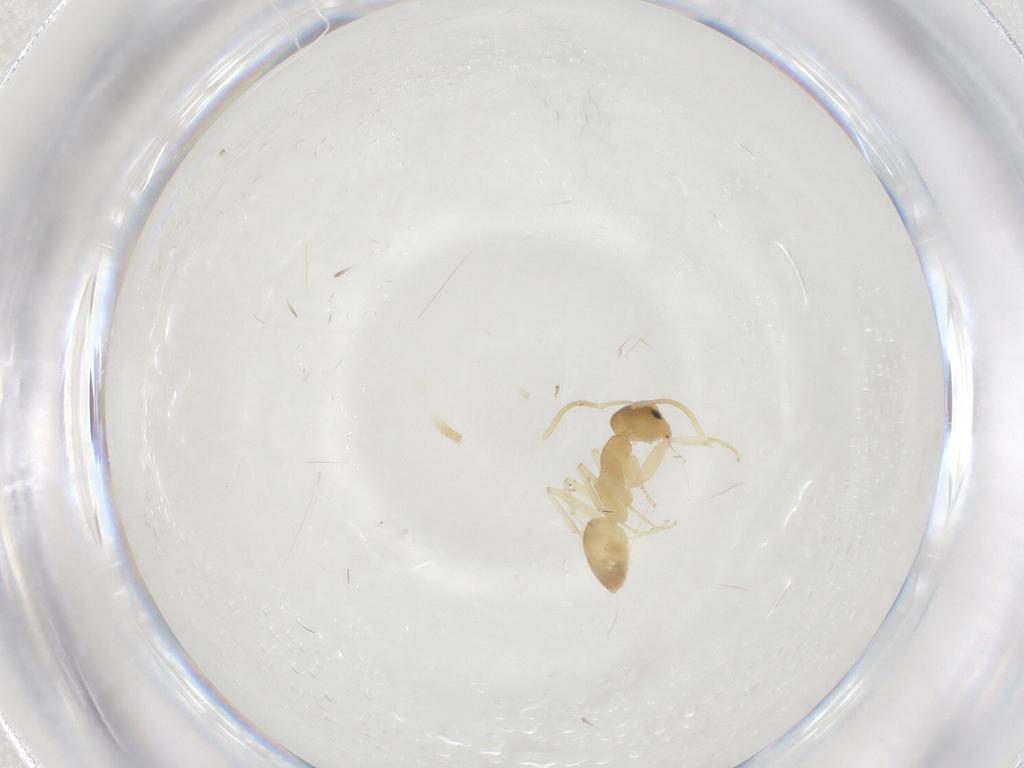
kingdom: Animalia
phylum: Arthropoda
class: Insecta
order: Hymenoptera
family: Formicidae
